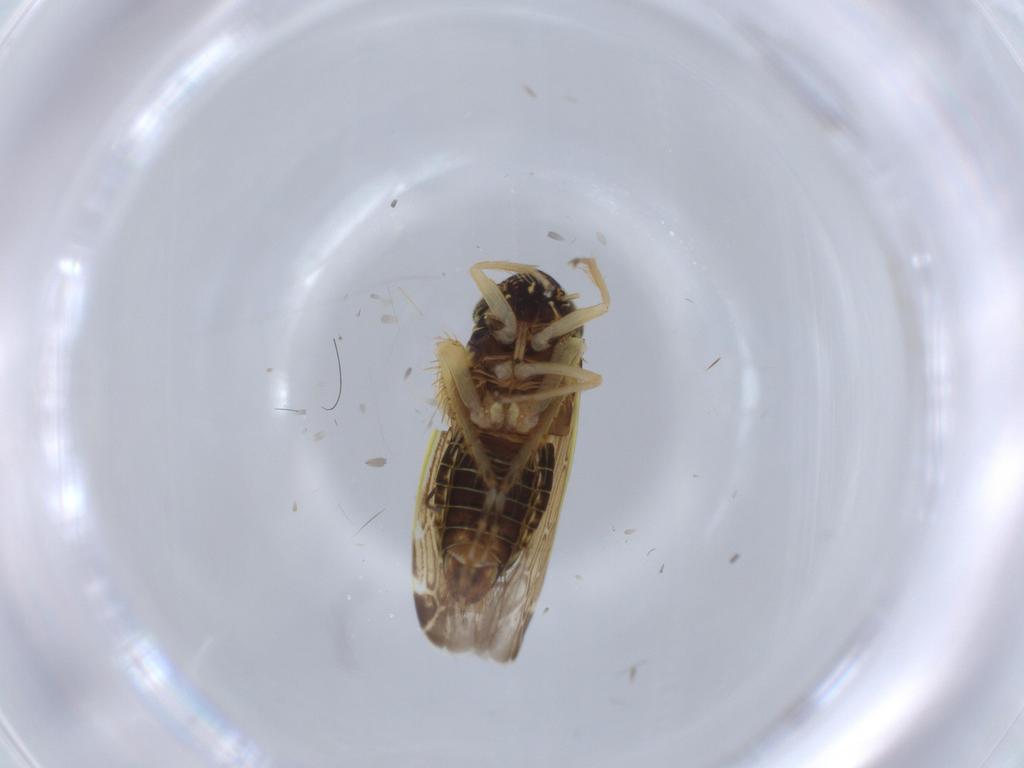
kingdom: Animalia
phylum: Arthropoda
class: Insecta
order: Hemiptera
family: Cicadellidae
